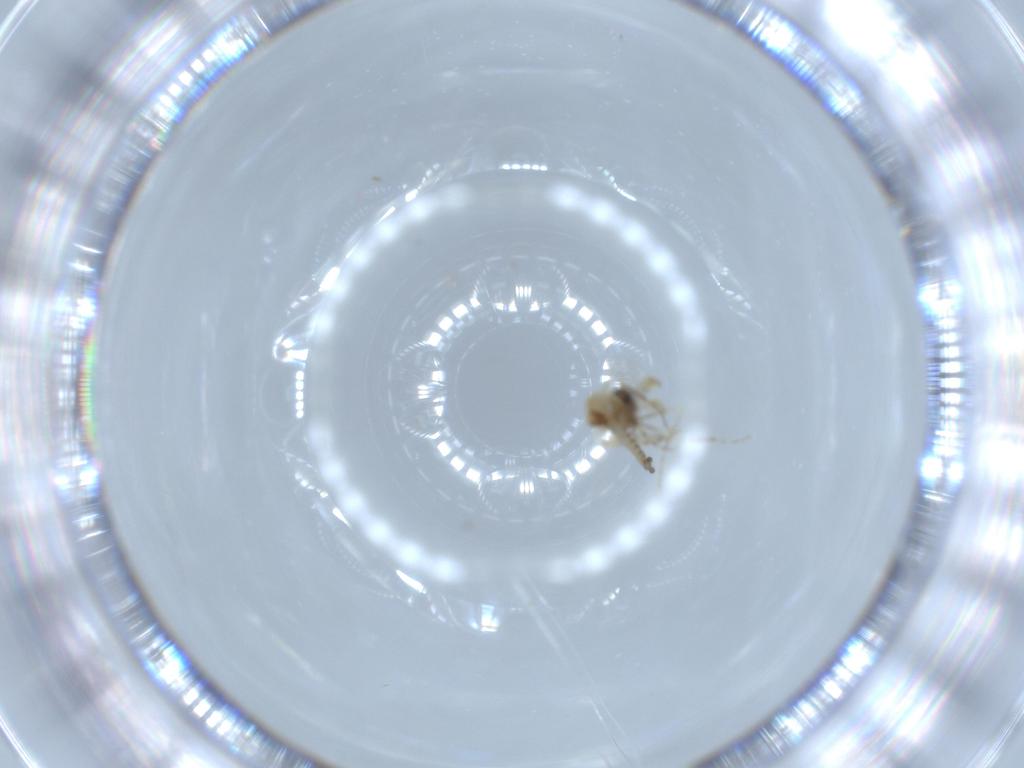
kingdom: Animalia
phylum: Arthropoda
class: Insecta
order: Diptera
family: Ceratopogonidae
